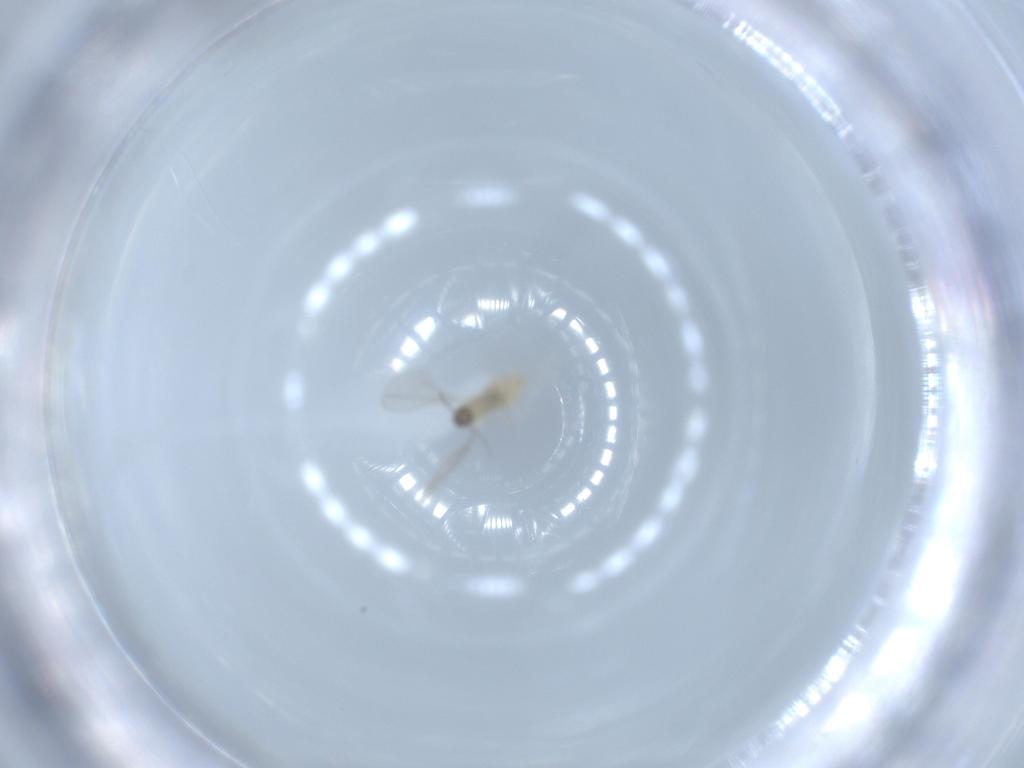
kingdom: Animalia
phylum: Arthropoda
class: Insecta
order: Diptera
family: Cecidomyiidae
